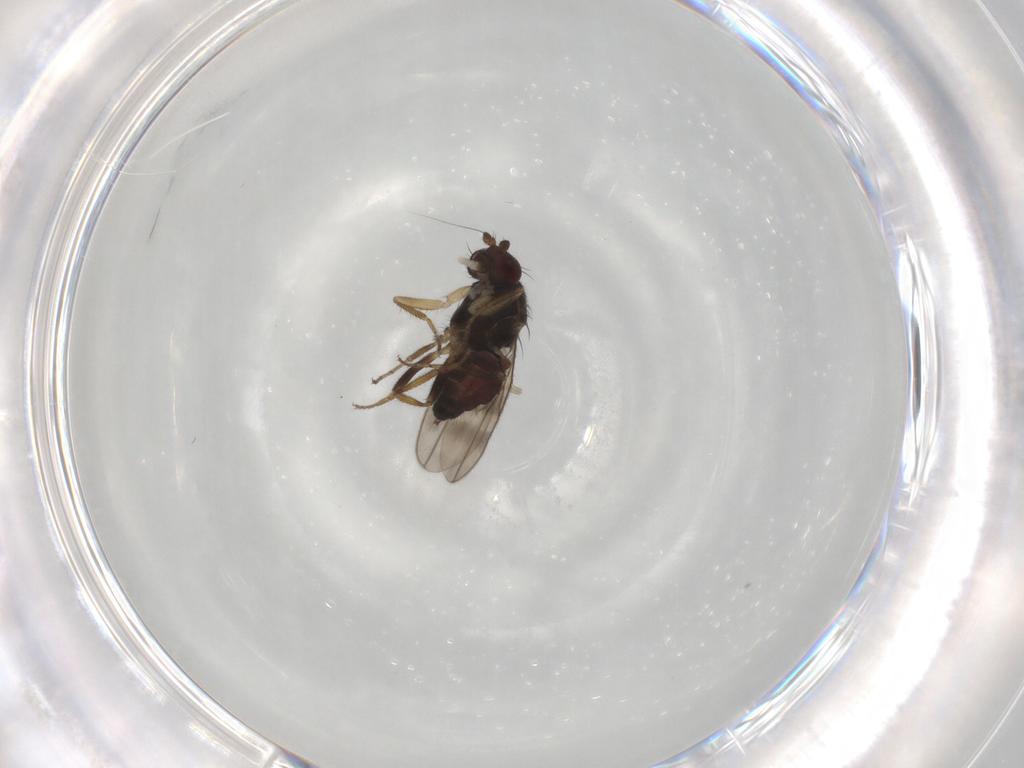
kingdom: Animalia
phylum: Arthropoda
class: Insecta
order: Diptera
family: Sphaeroceridae
